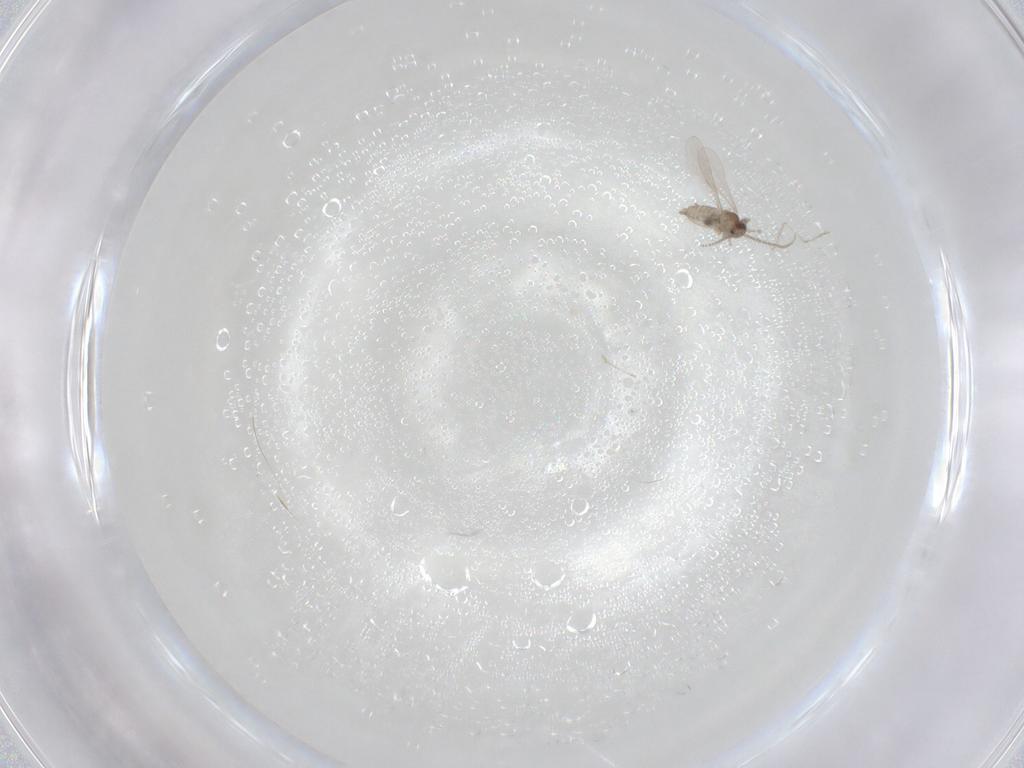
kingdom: Animalia
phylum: Arthropoda
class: Insecta
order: Diptera
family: Cecidomyiidae
